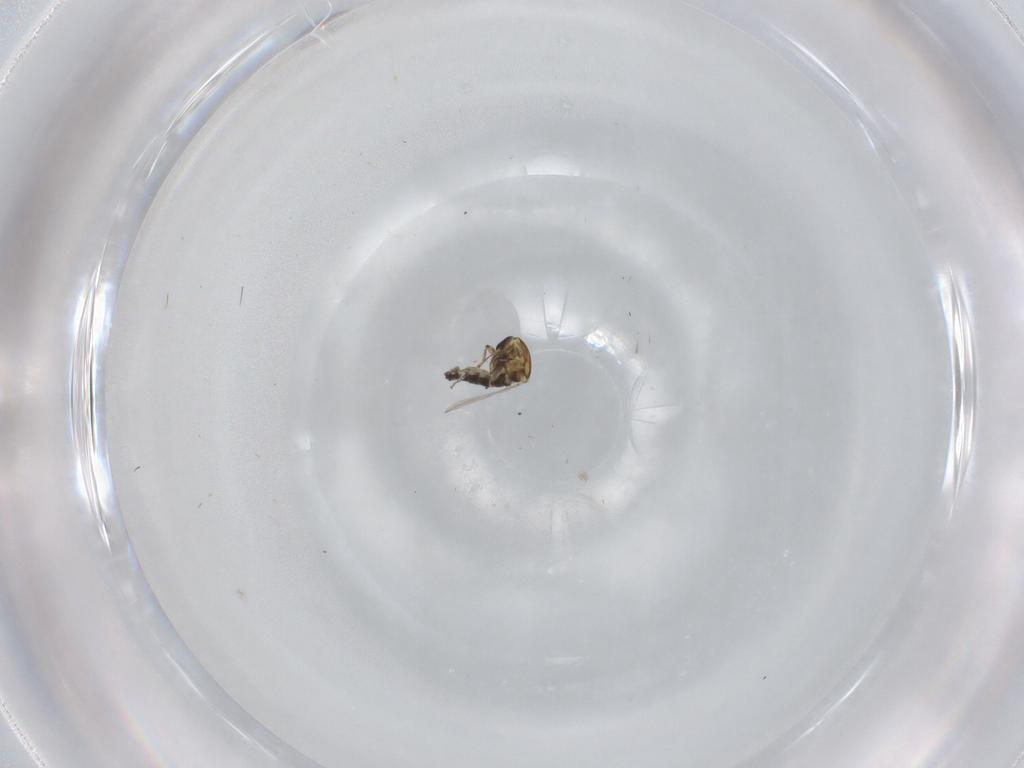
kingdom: Animalia
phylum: Arthropoda
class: Insecta
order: Diptera
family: Ceratopogonidae
